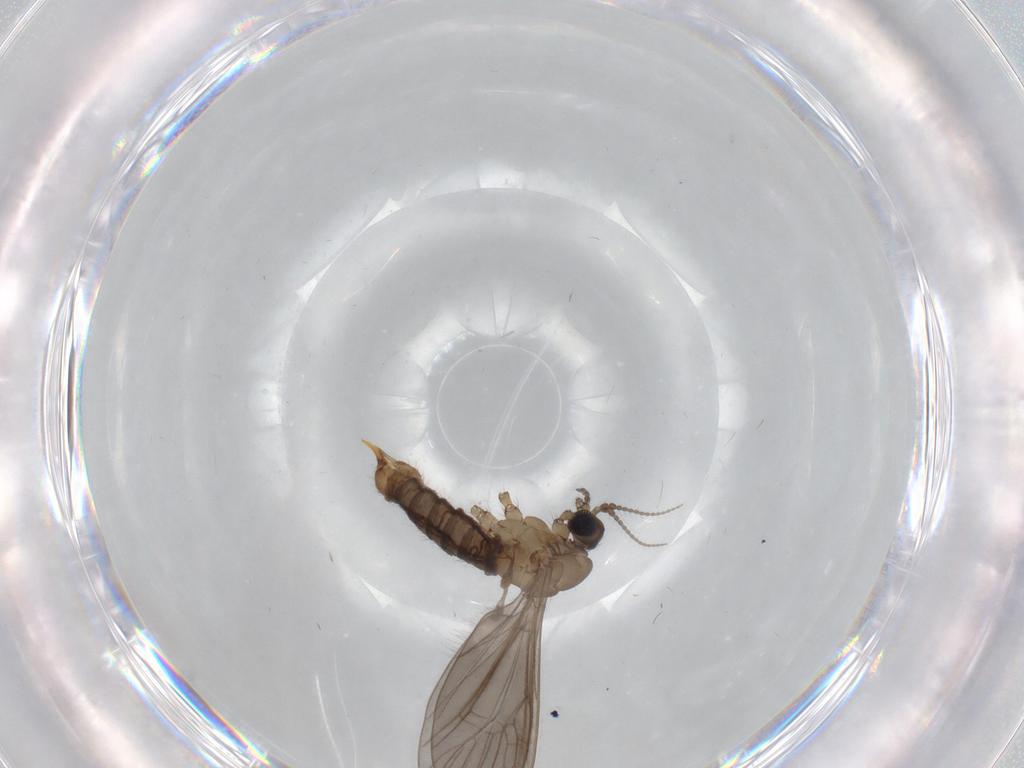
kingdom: Animalia
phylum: Arthropoda
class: Insecta
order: Diptera
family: Limoniidae
